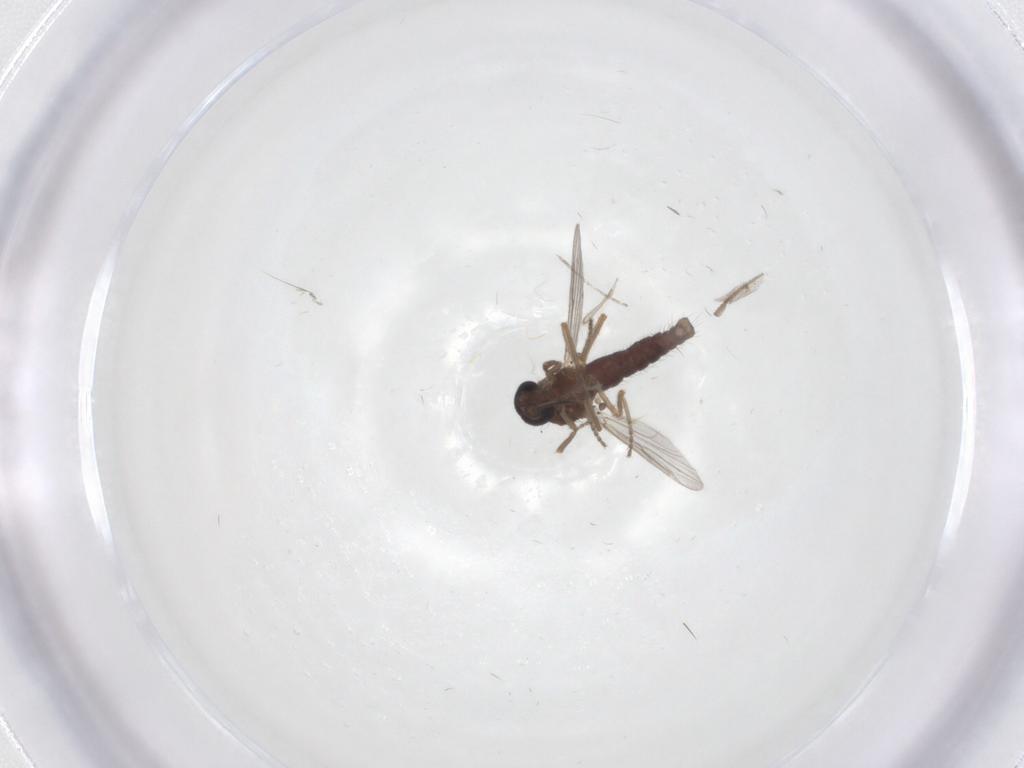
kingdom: Animalia
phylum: Arthropoda
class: Insecta
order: Diptera
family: Ceratopogonidae
